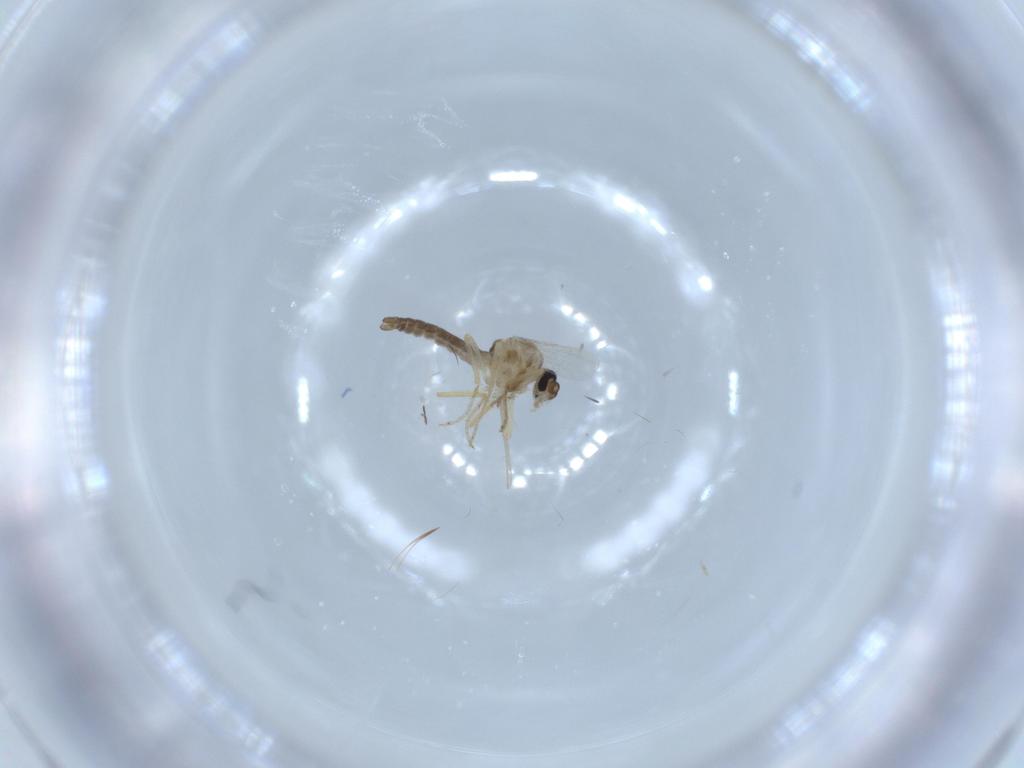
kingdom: Animalia
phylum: Arthropoda
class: Insecta
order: Diptera
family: Ceratopogonidae
